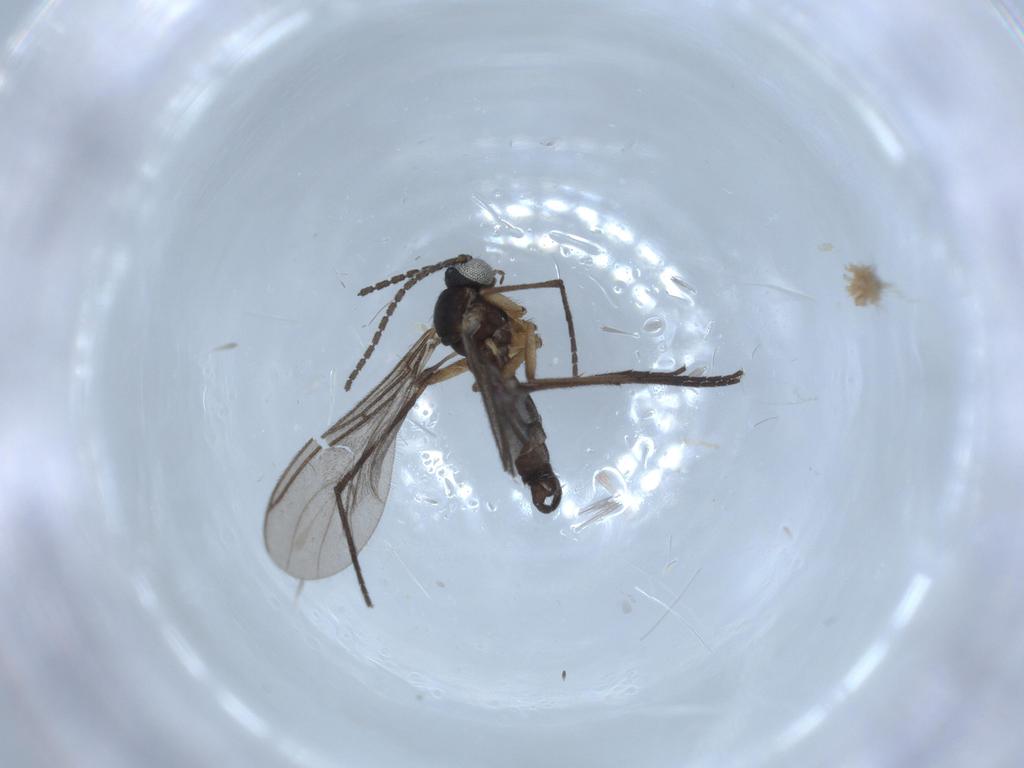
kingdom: Animalia
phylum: Arthropoda
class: Insecta
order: Diptera
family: Sciaridae
